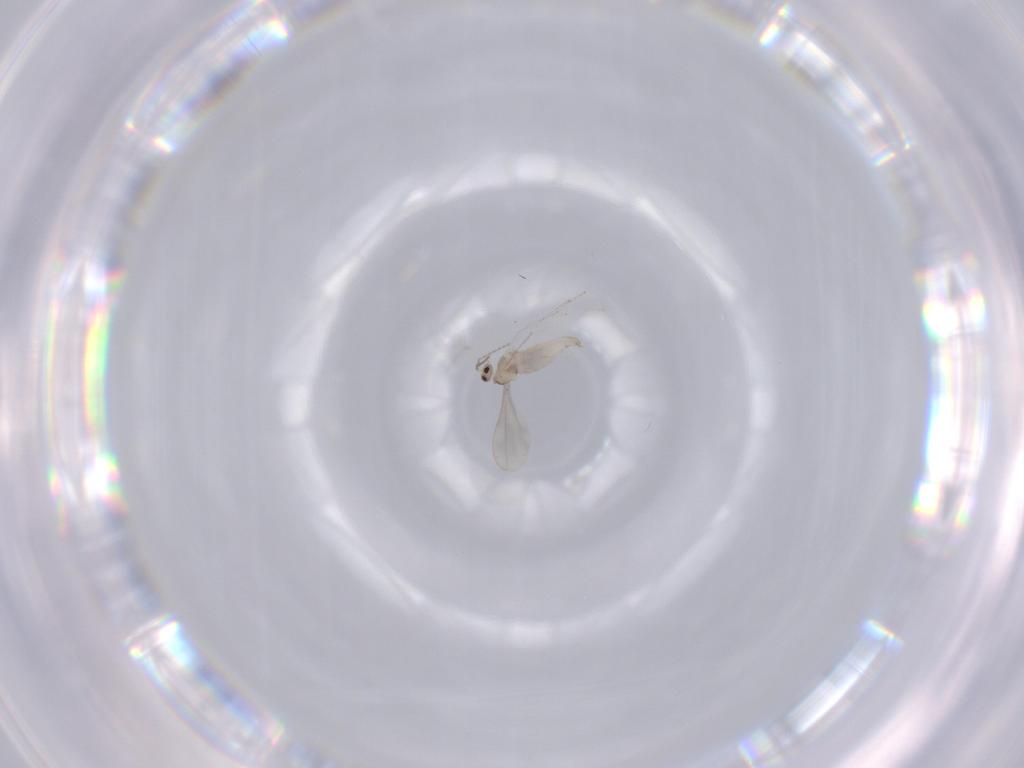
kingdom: Animalia
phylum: Arthropoda
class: Insecta
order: Diptera
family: Cecidomyiidae
